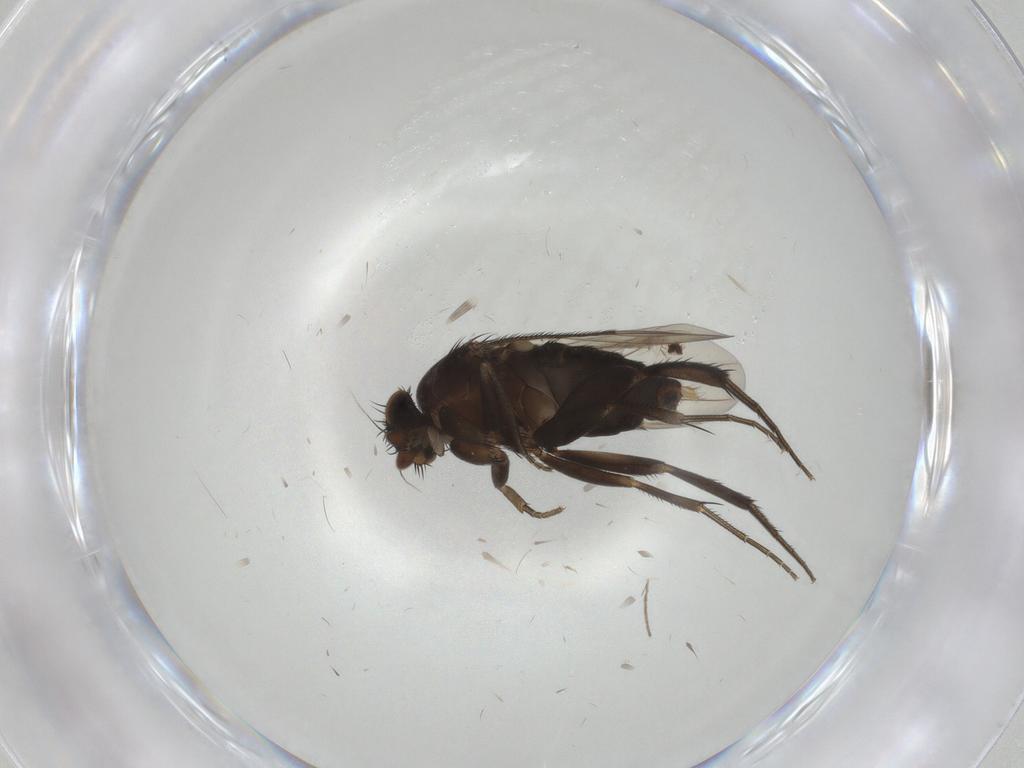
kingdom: Animalia
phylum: Arthropoda
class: Insecta
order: Diptera
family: Phoridae
